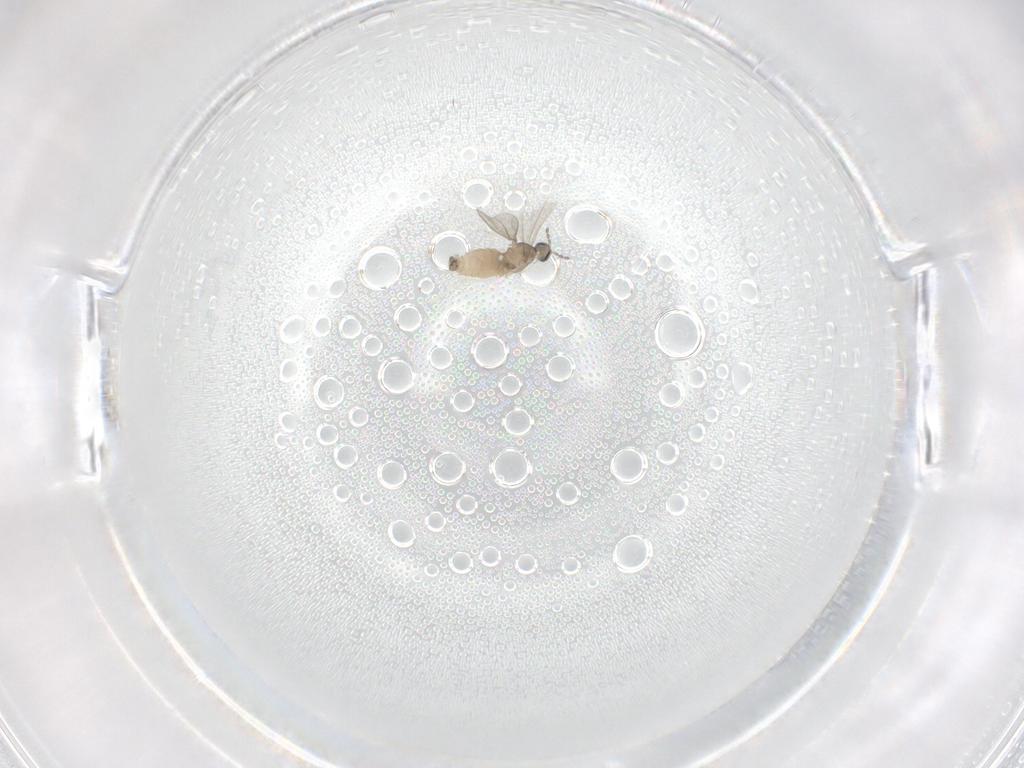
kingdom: Animalia
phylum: Arthropoda
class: Insecta
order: Diptera
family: Cecidomyiidae
